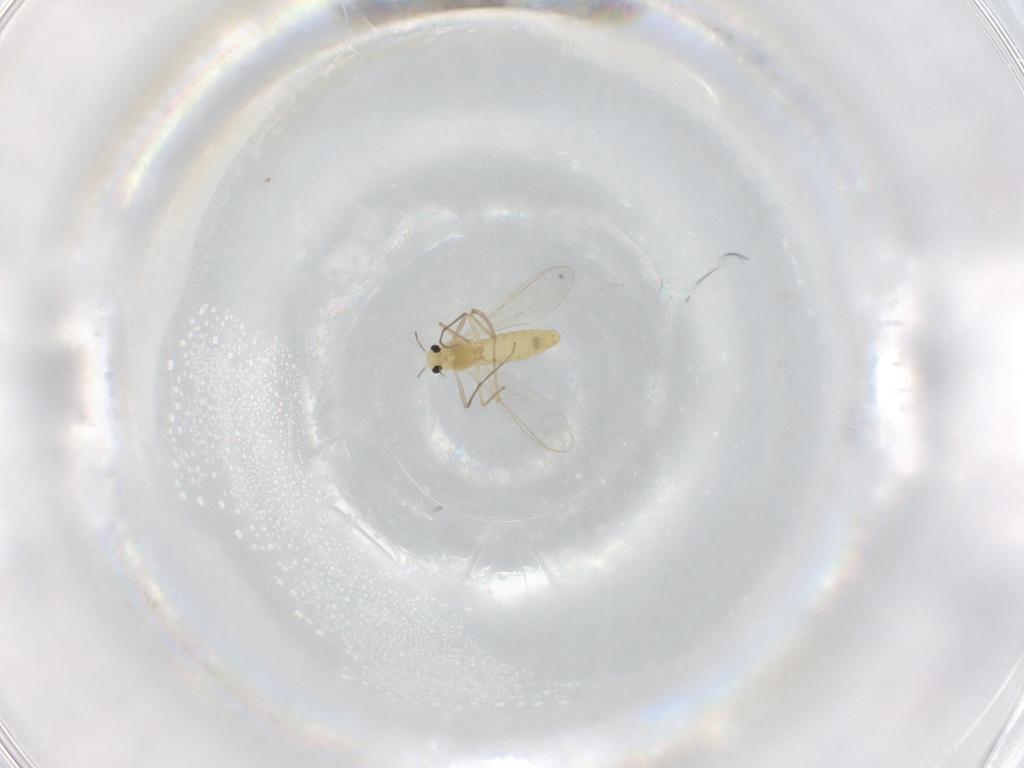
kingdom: Animalia
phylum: Arthropoda
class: Insecta
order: Diptera
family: Chironomidae
